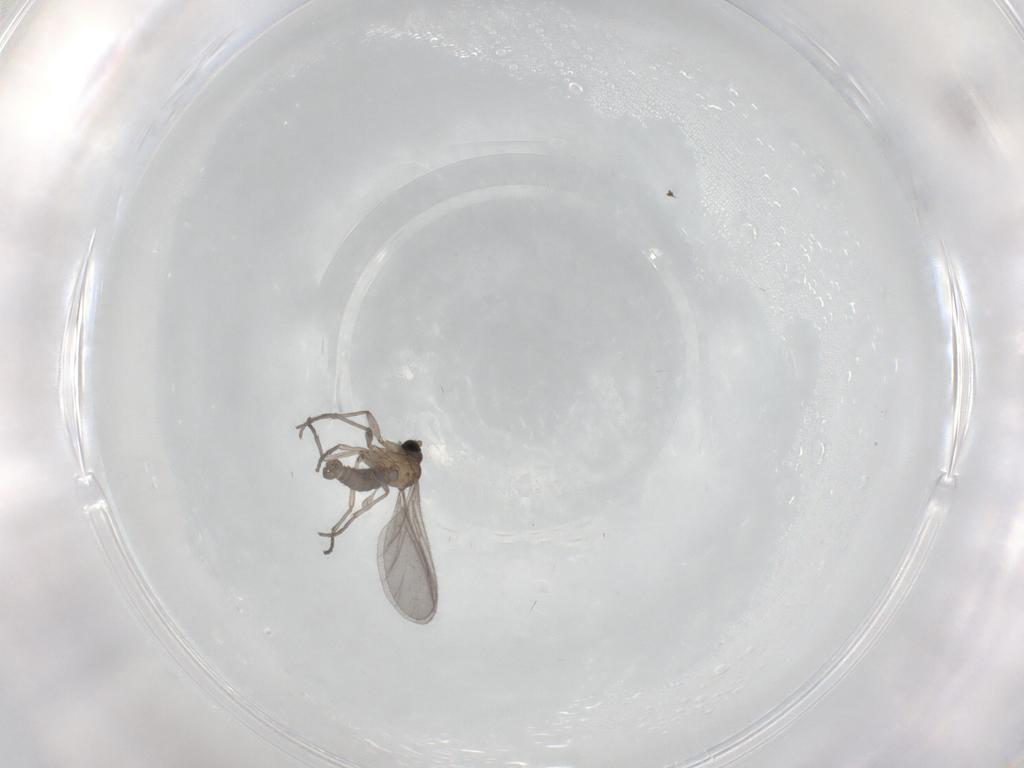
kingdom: Animalia
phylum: Arthropoda
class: Insecta
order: Diptera
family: Sciaridae
